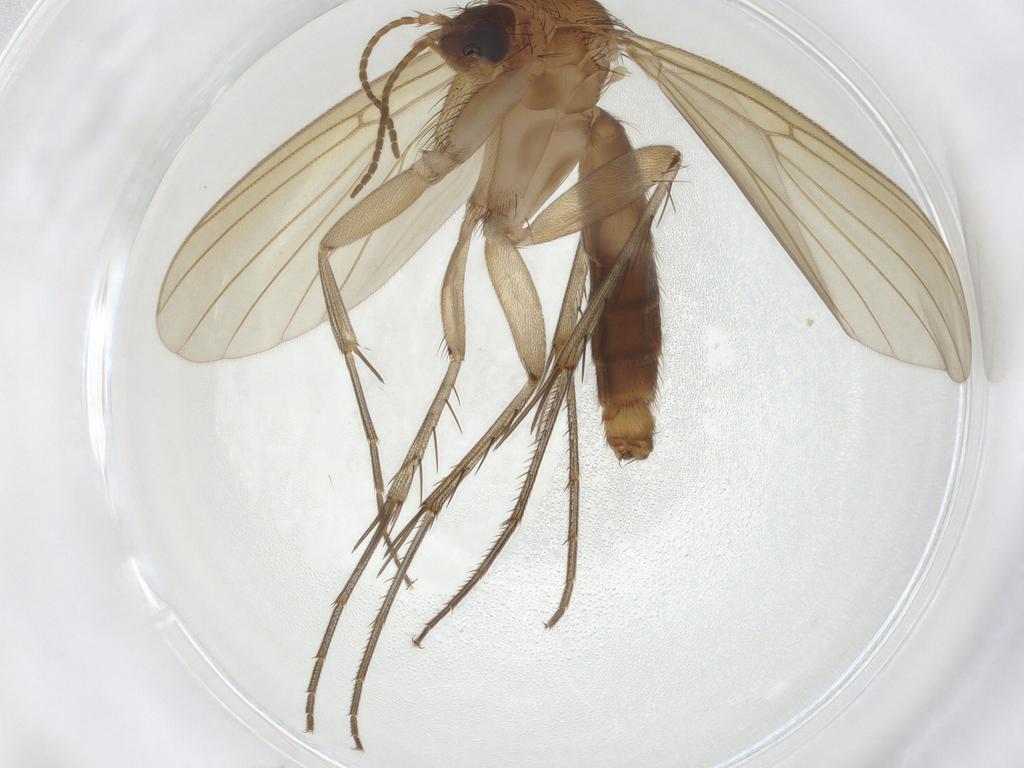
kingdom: Animalia
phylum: Arthropoda
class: Insecta
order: Diptera
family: Mycetophilidae
